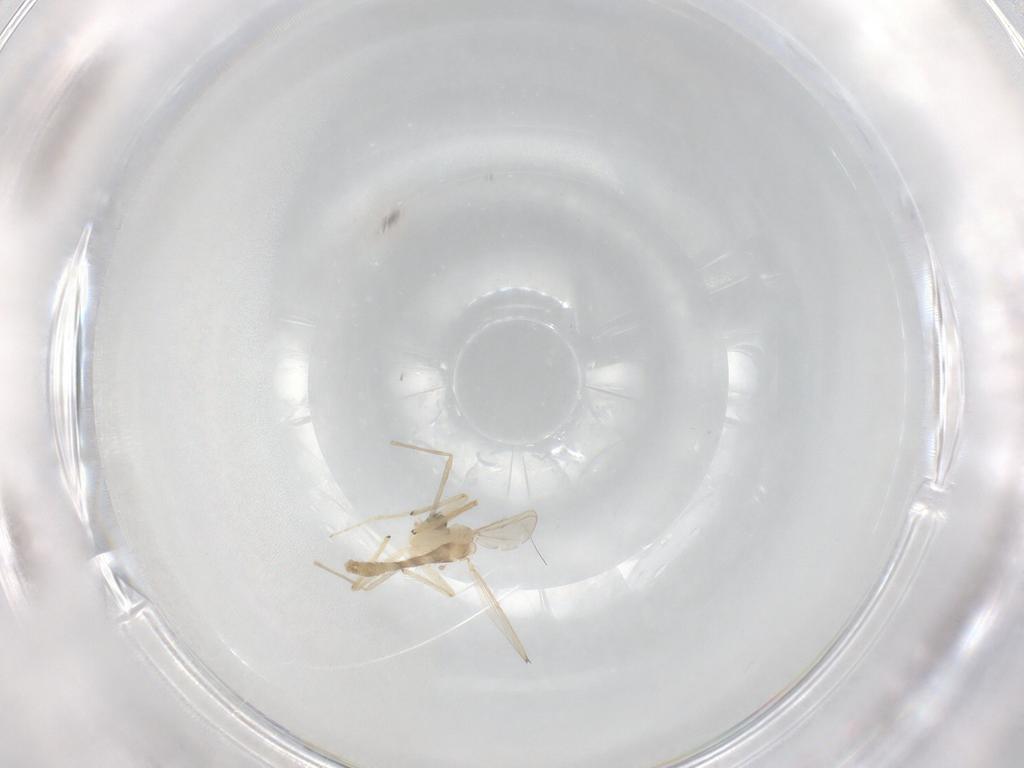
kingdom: Animalia
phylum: Arthropoda
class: Insecta
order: Diptera
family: Chironomidae
